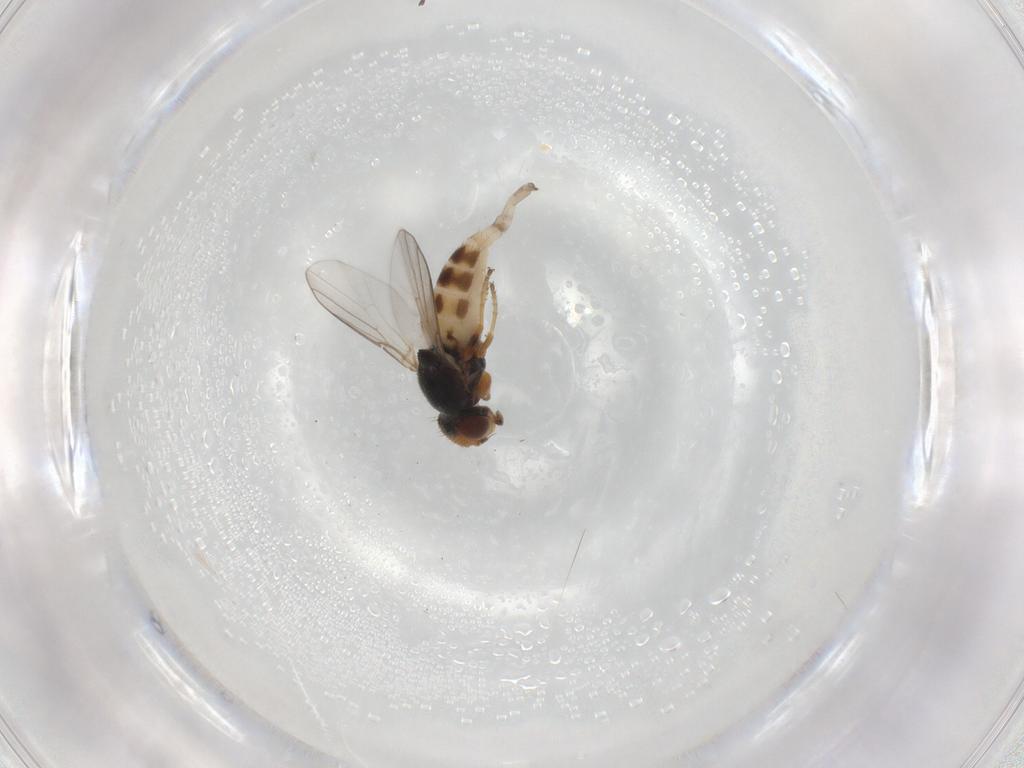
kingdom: Animalia
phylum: Arthropoda
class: Insecta
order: Diptera
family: Chloropidae
